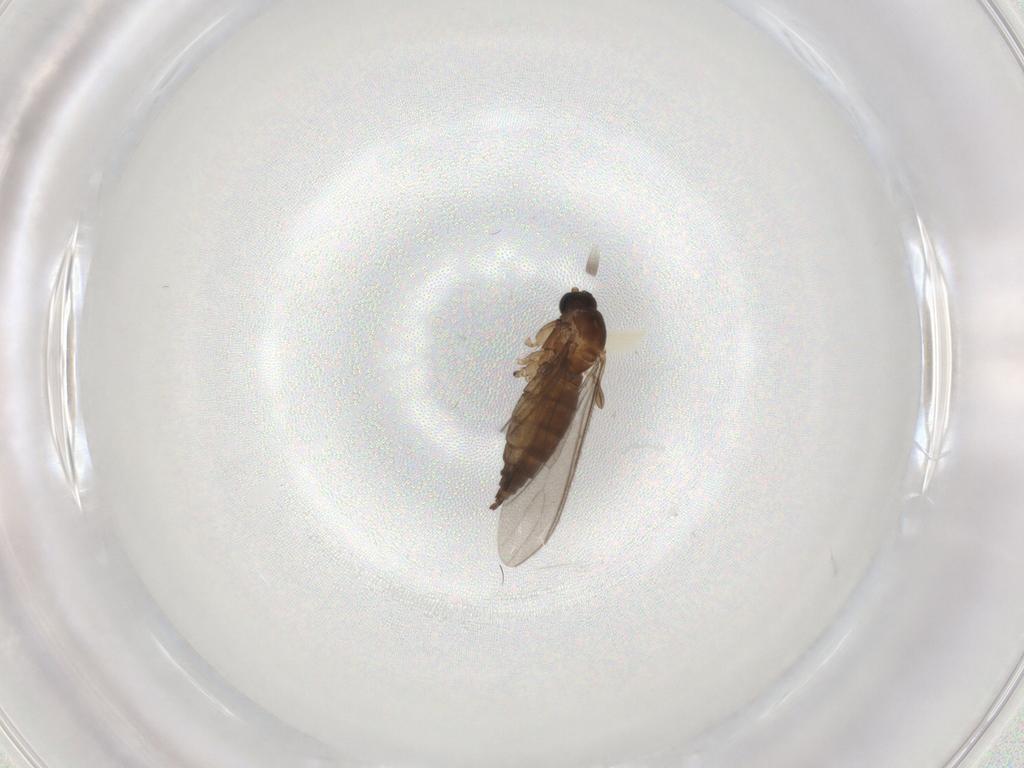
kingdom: Animalia
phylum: Arthropoda
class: Insecta
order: Diptera
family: Sciaridae
